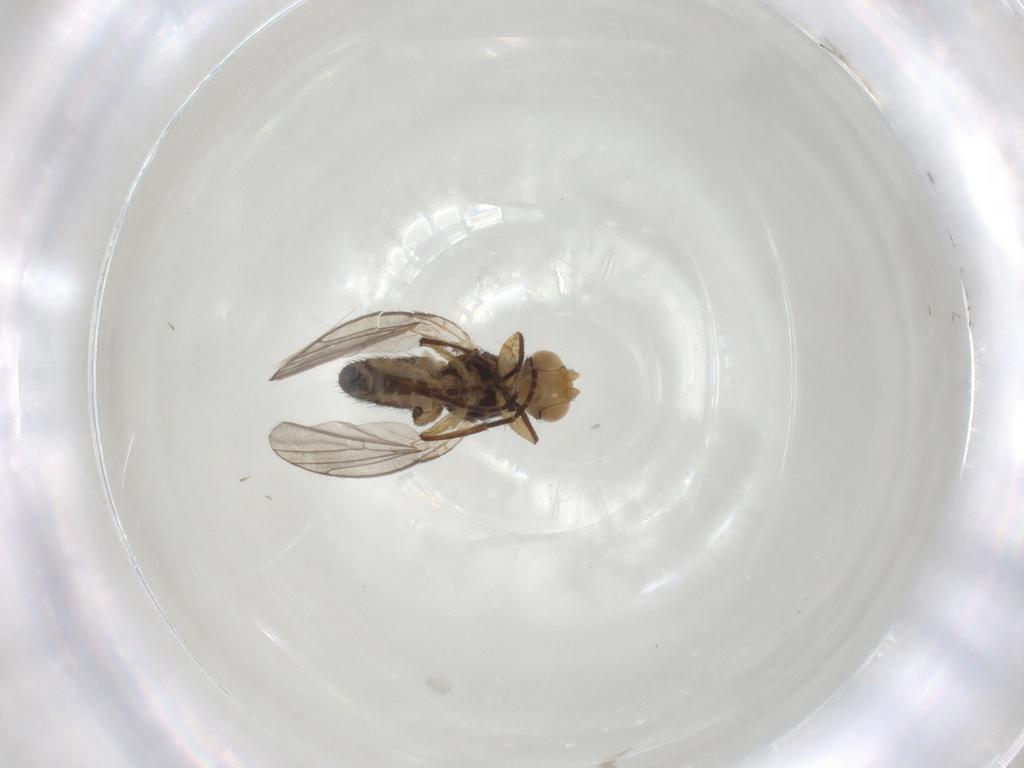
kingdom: Animalia
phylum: Arthropoda
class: Insecta
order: Diptera
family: Agromyzidae
